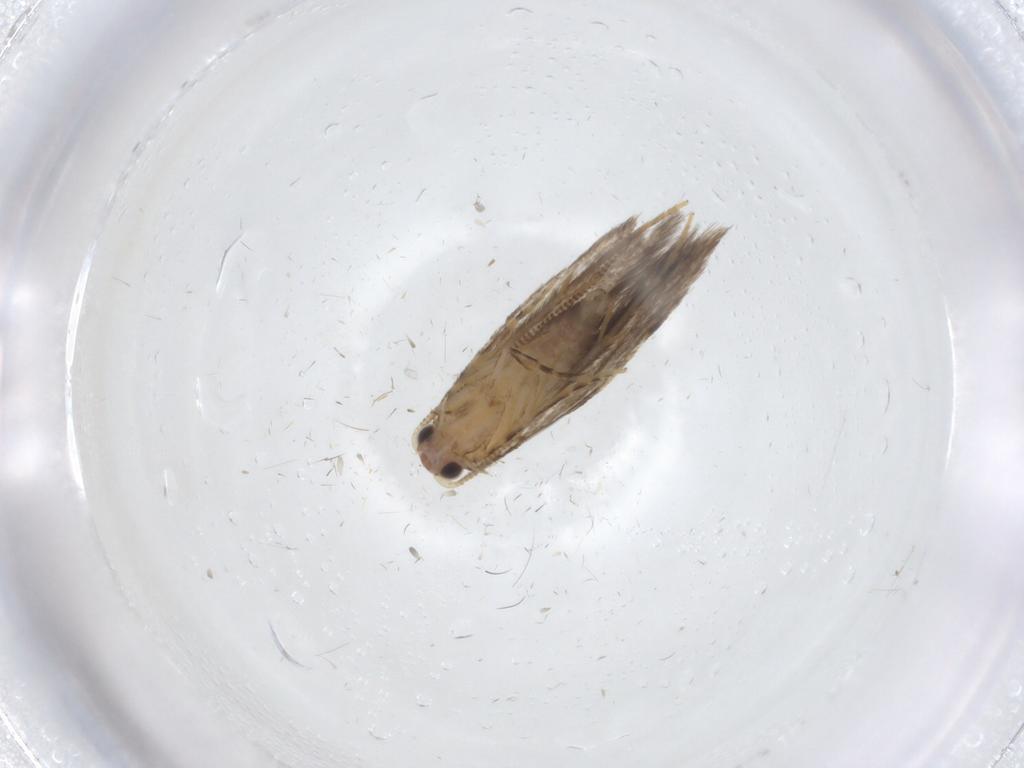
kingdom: Animalia
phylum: Arthropoda
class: Insecta
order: Lepidoptera
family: Tineidae
